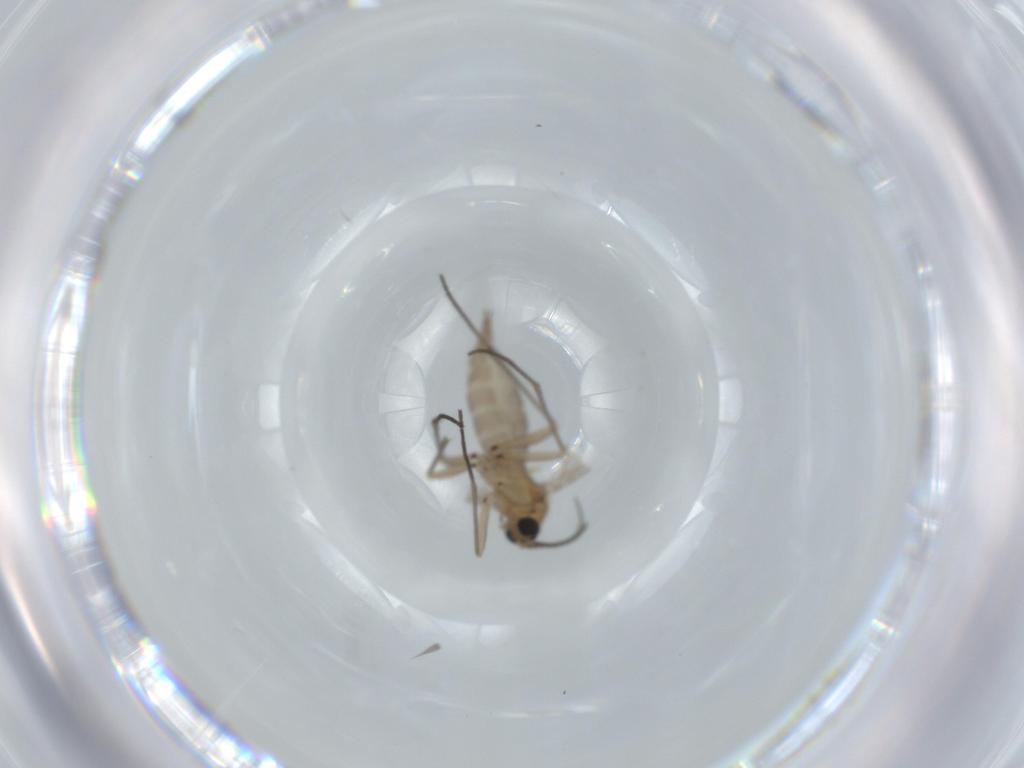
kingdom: Animalia
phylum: Arthropoda
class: Insecta
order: Diptera
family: Sciaridae
